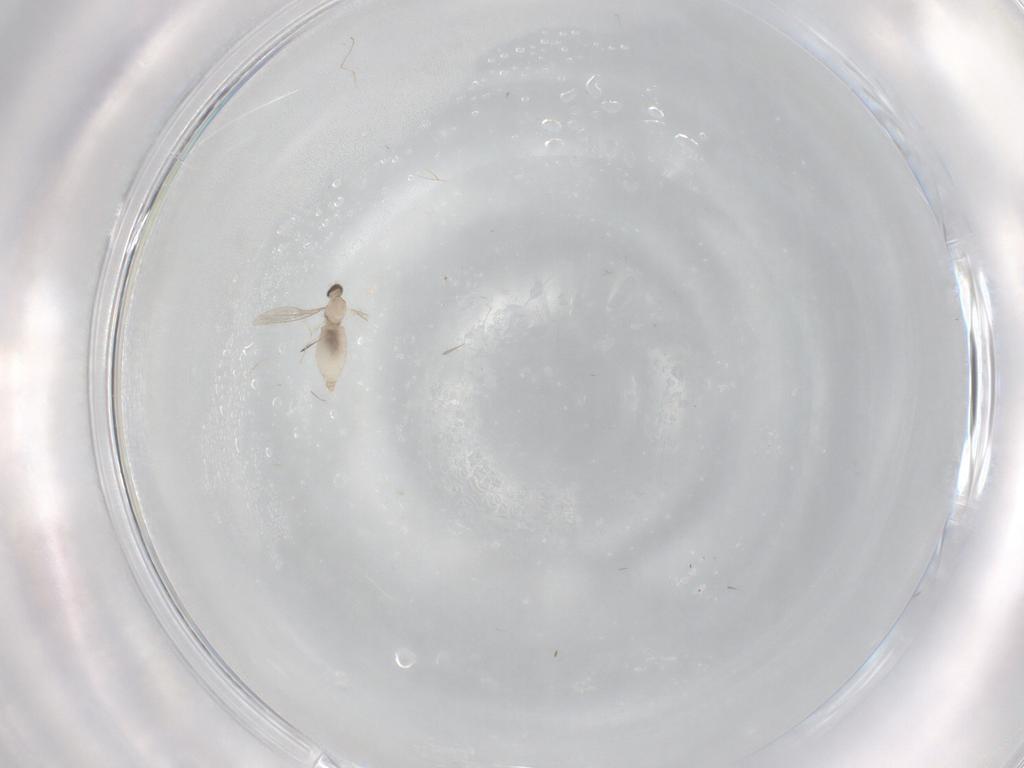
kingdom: Animalia
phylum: Arthropoda
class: Insecta
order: Diptera
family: Cecidomyiidae
